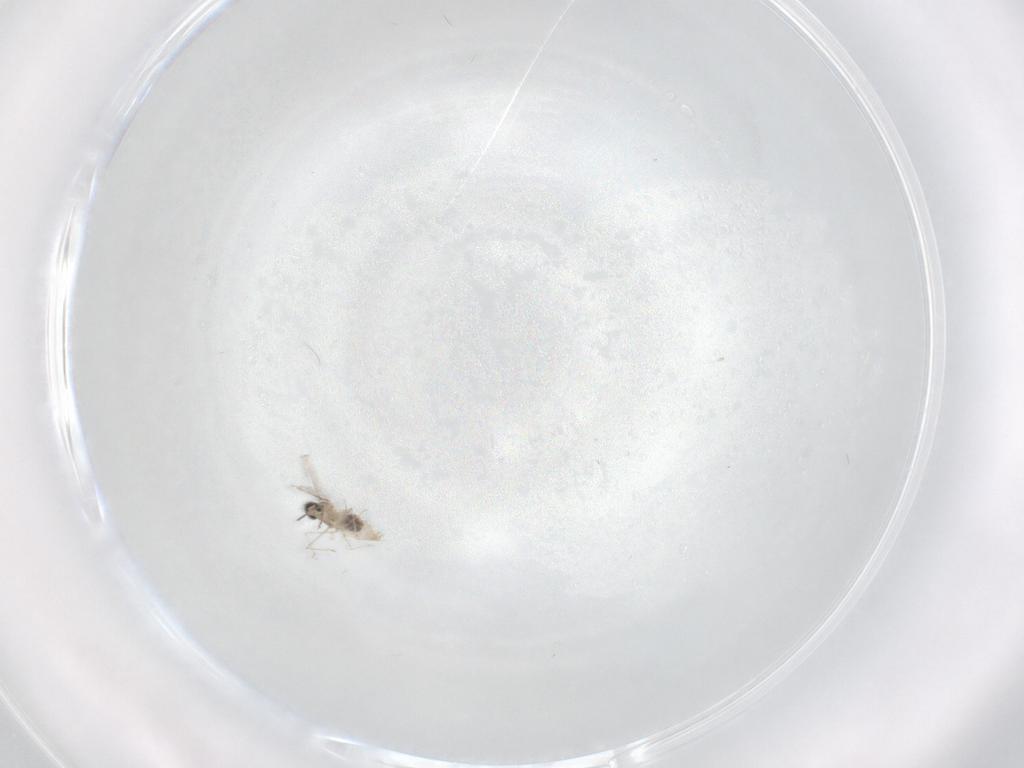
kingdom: Animalia
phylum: Arthropoda
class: Insecta
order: Diptera
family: Cecidomyiidae
